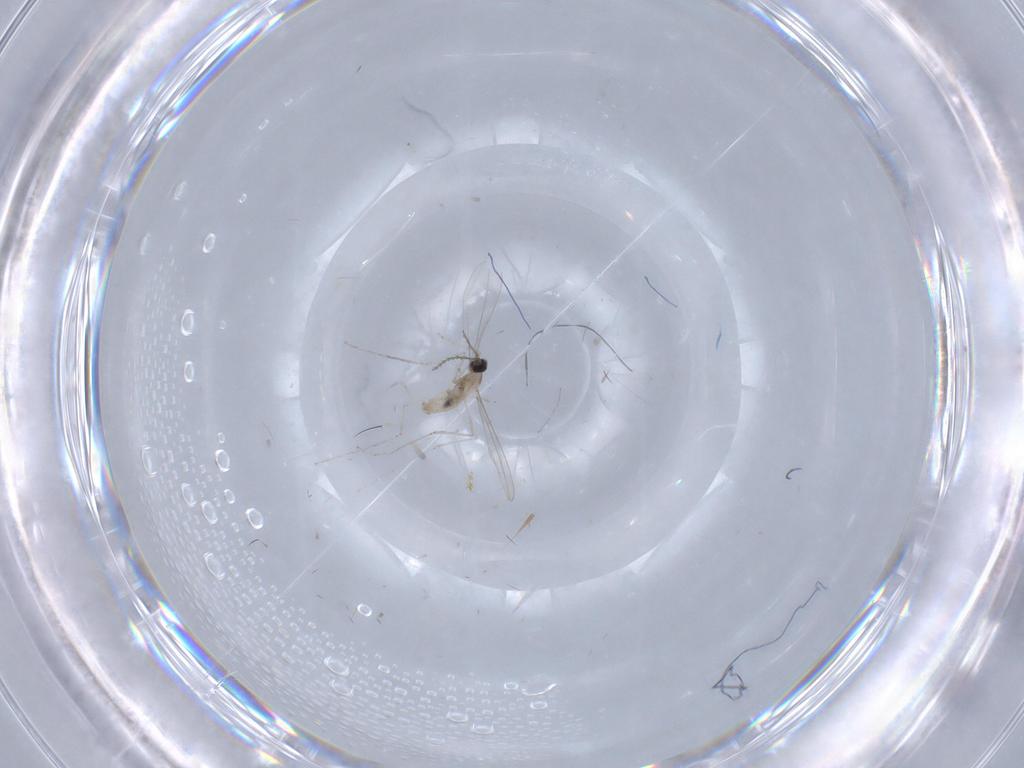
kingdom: Animalia
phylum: Arthropoda
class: Insecta
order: Diptera
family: Cecidomyiidae
